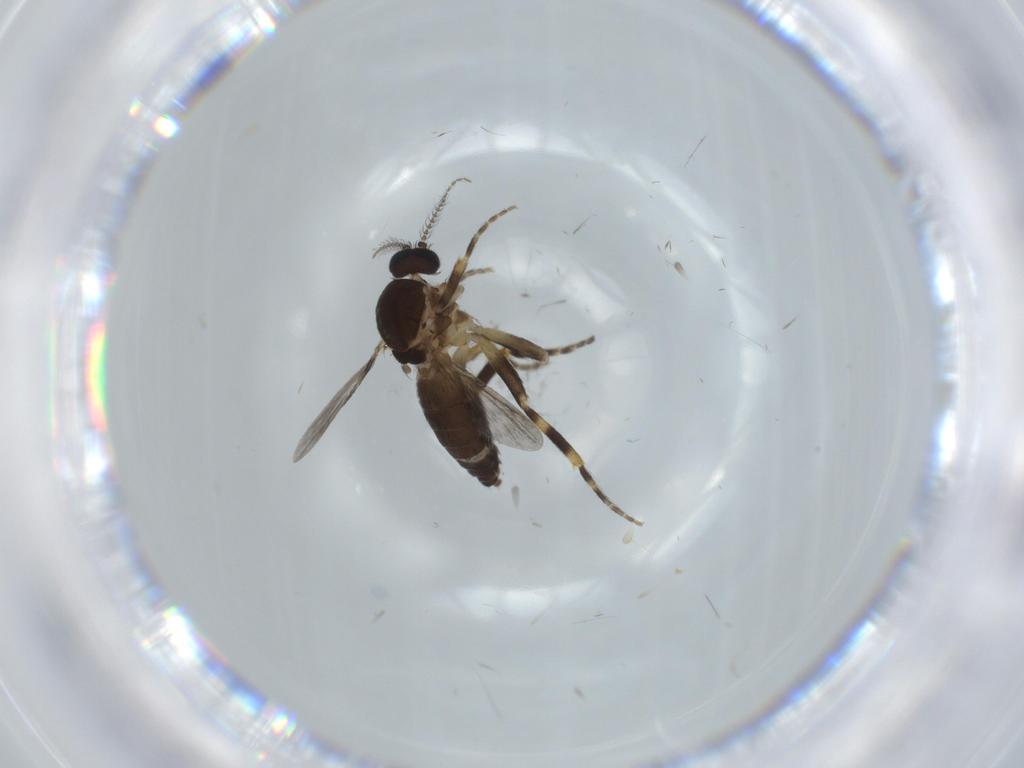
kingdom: Animalia
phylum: Arthropoda
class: Insecta
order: Diptera
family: Ceratopogonidae
